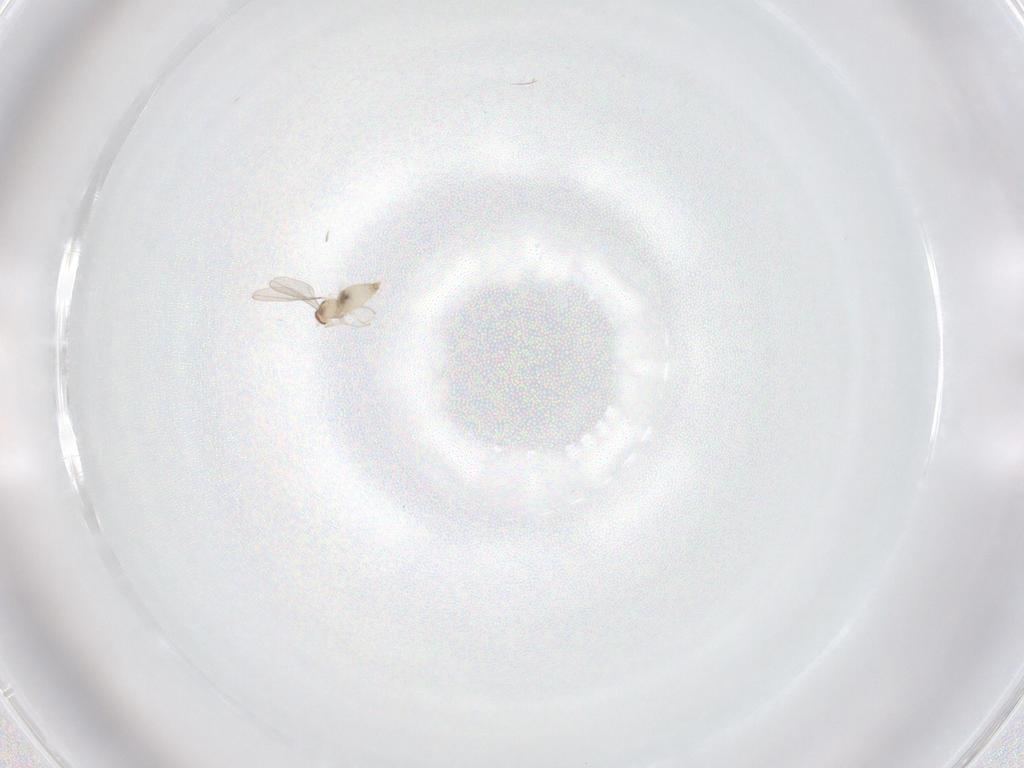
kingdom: Animalia
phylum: Arthropoda
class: Insecta
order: Diptera
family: Cecidomyiidae
